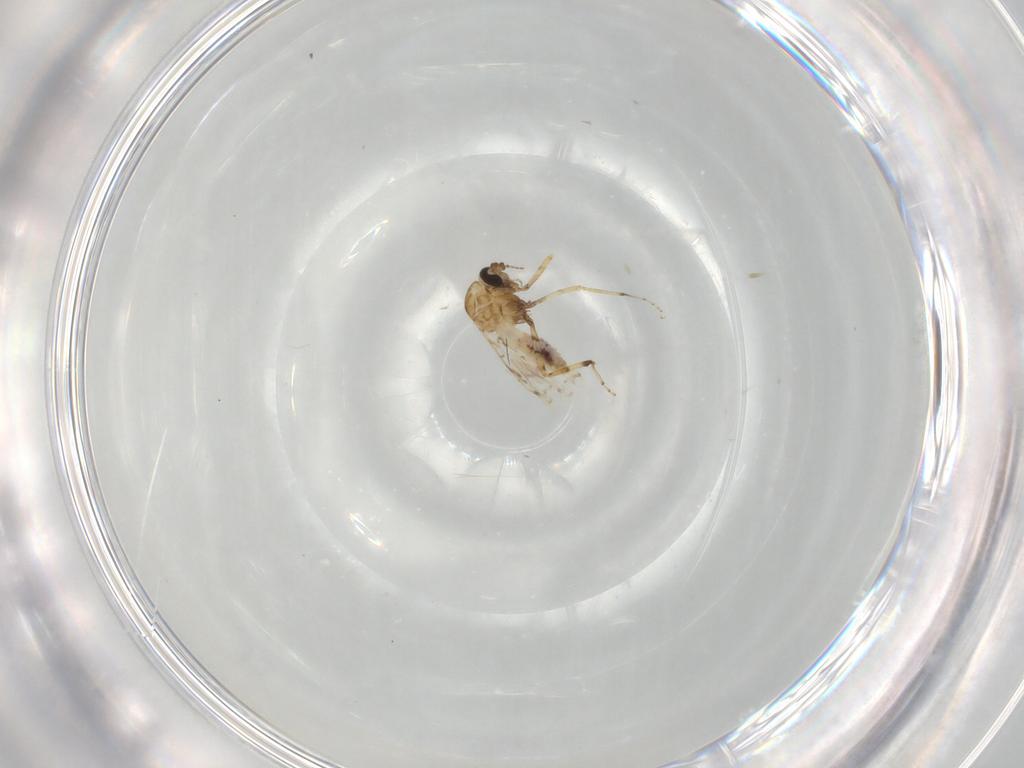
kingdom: Animalia
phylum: Arthropoda
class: Insecta
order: Diptera
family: Ceratopogonidae
